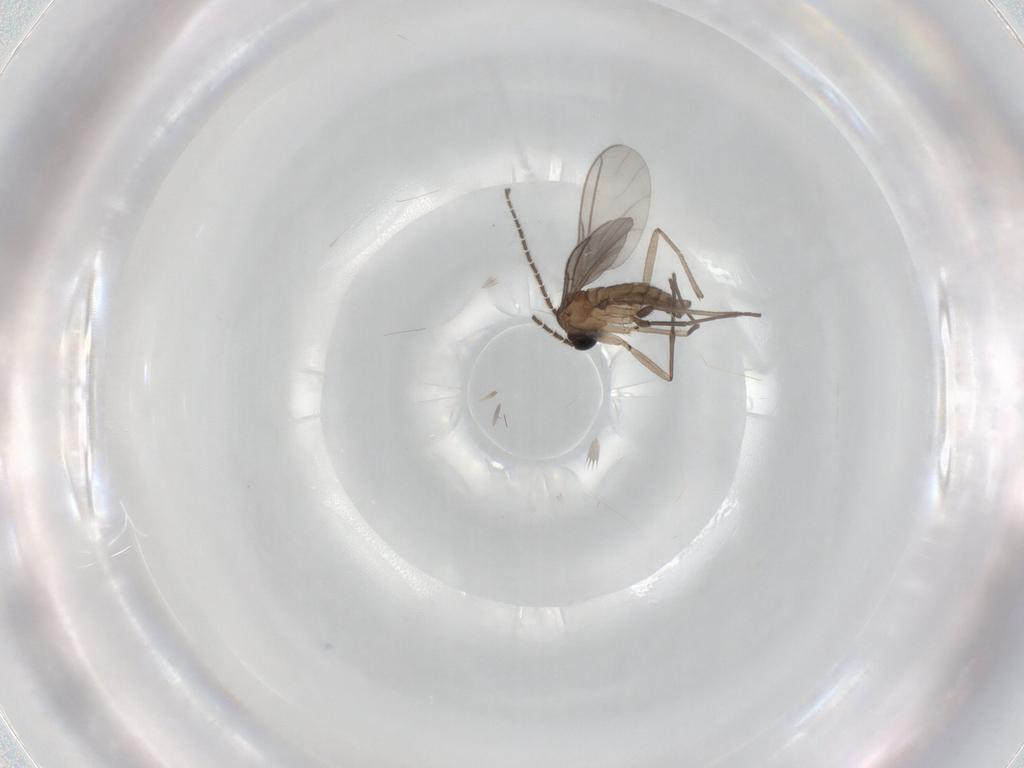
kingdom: Animalia
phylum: Arthropoda
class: Insecta
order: Diptera
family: Sciaridae
